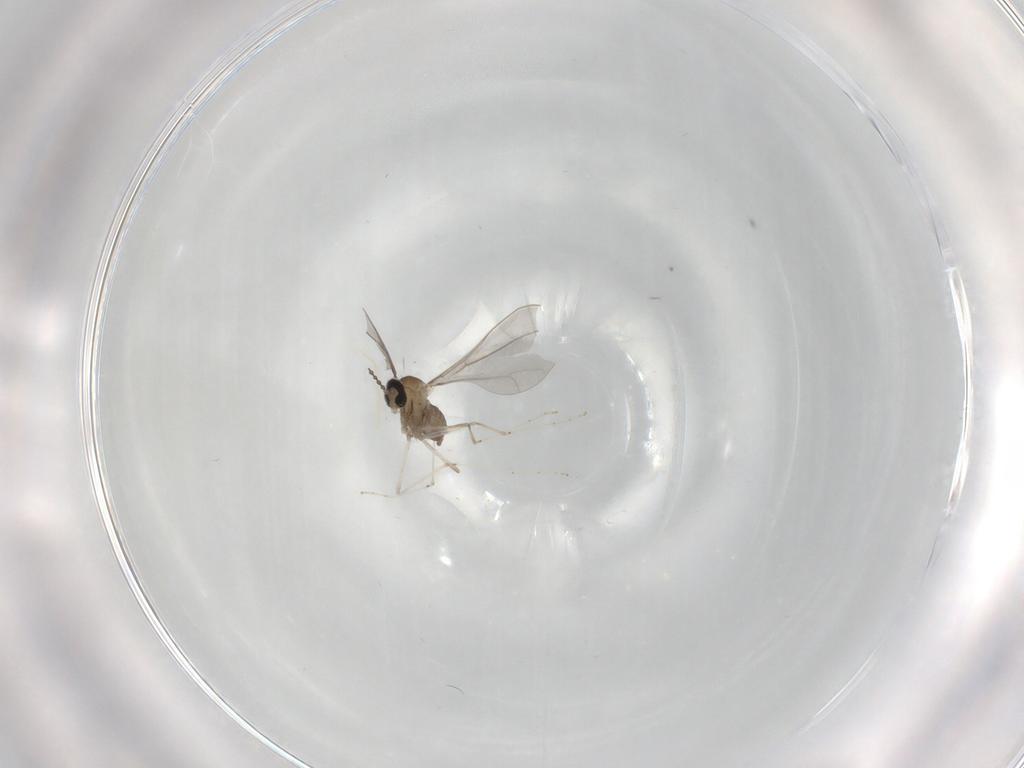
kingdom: Animalia
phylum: Arthropoda
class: Insecta
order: Diptera
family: Cecidomyiidae
